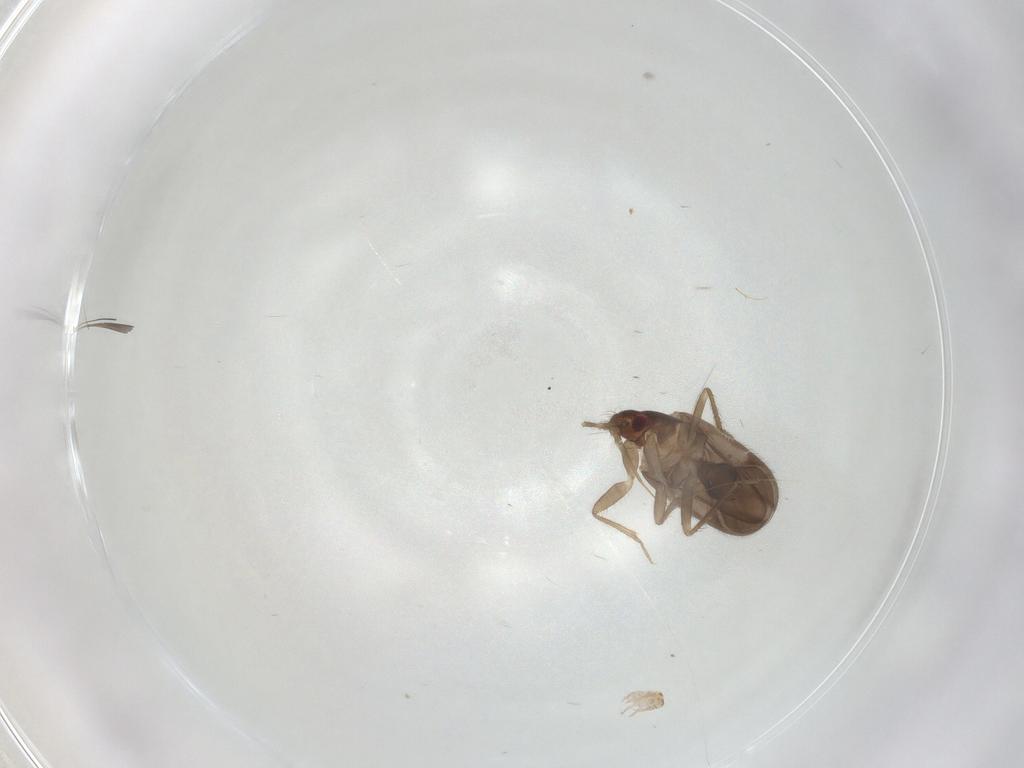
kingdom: Animalia
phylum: Arthropoda
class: Insecta
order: Hemiptera
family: Ceratocombidae
